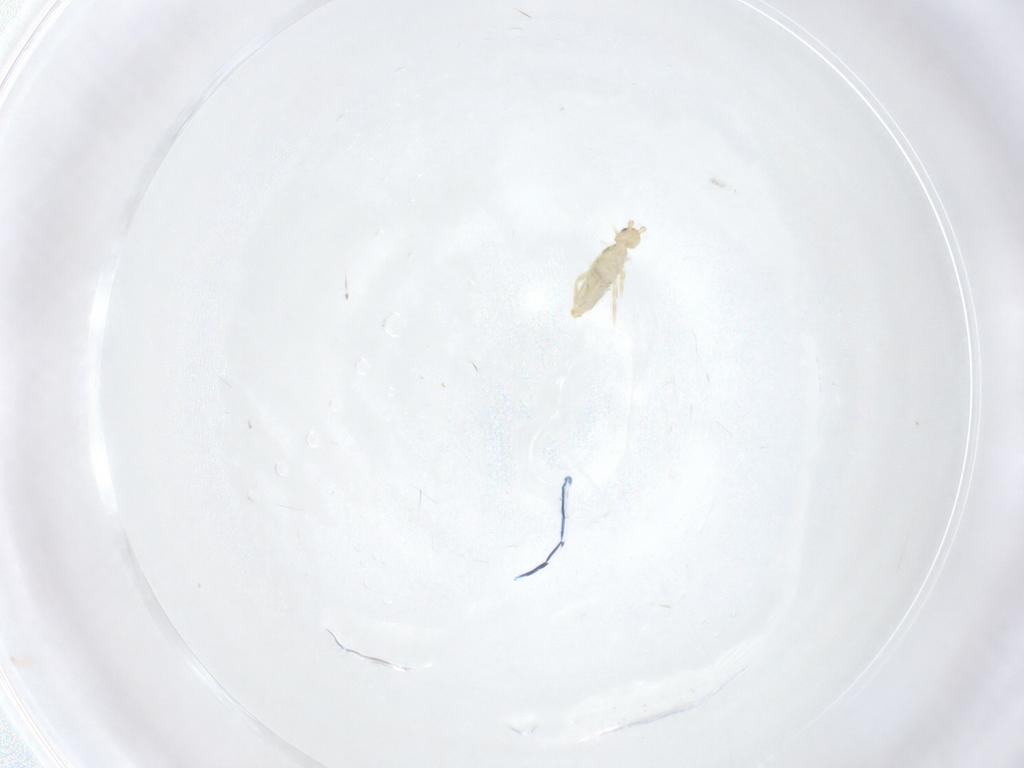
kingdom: Animalia
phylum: Arthropoda
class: Collembola
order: Entomobryomorpha
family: Entomobryidae
